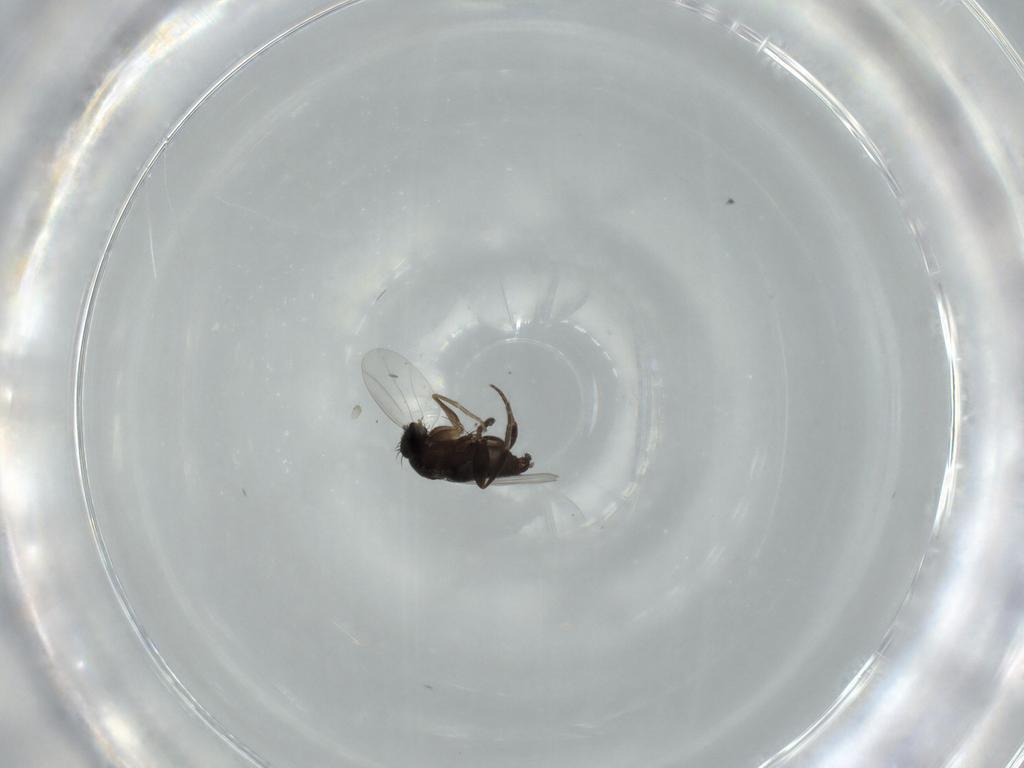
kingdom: Animalia
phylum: Arthropoda
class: Insecta
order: Diptera
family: Phoridae
